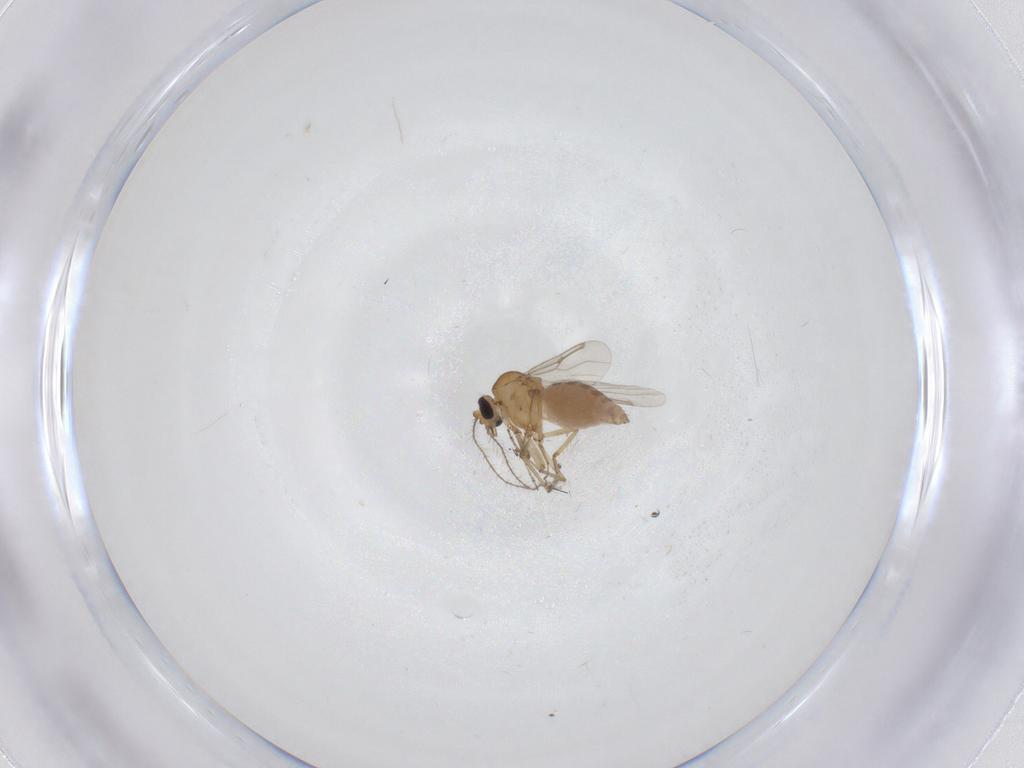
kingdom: Animalia
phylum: Arthropoda
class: Insecta
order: Diptera
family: Ceratopogonidae
